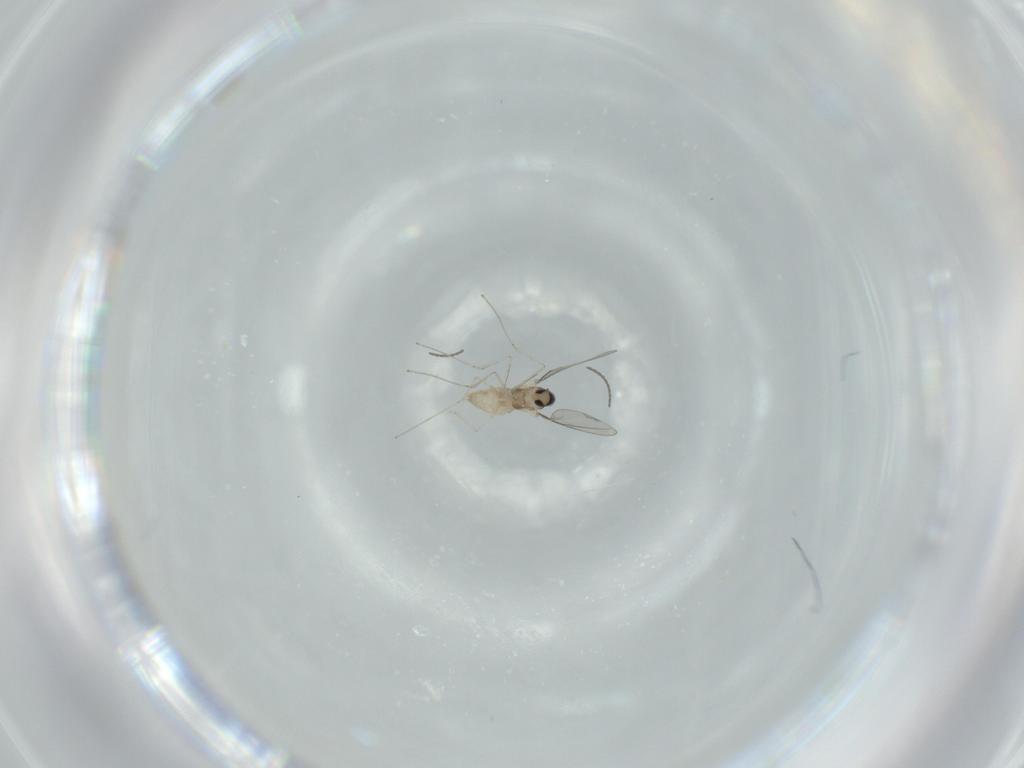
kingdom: Animalia
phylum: Arthropoda
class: Insecta
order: Diptera
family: Cecidomyiidae
